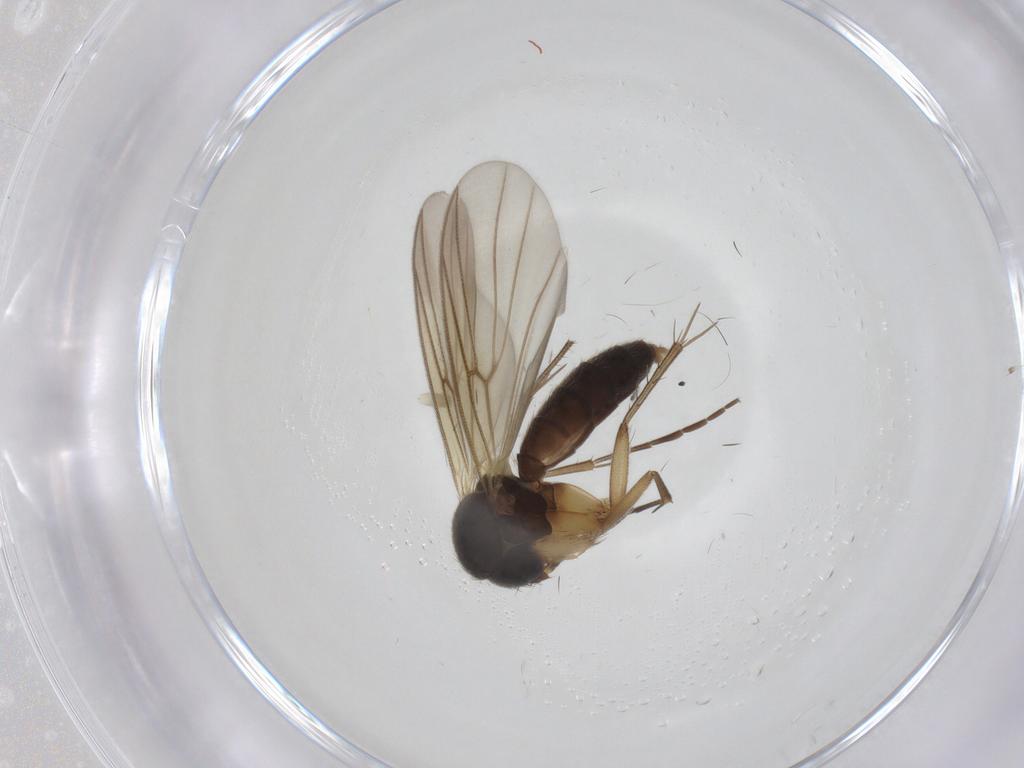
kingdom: Animalia
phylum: Arthropoda
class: Insecta
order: Diptera
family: Mycetophilidae
